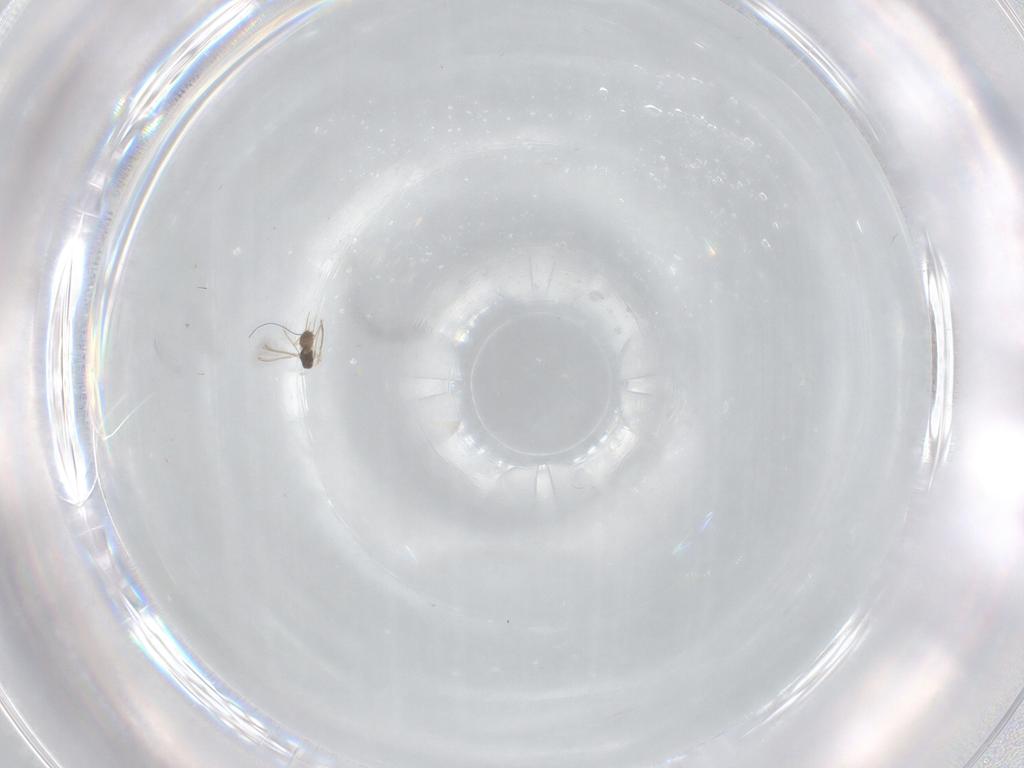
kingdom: Animalia
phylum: Arthropoda
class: Insecta
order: Hymenoptera
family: Mymaridae
